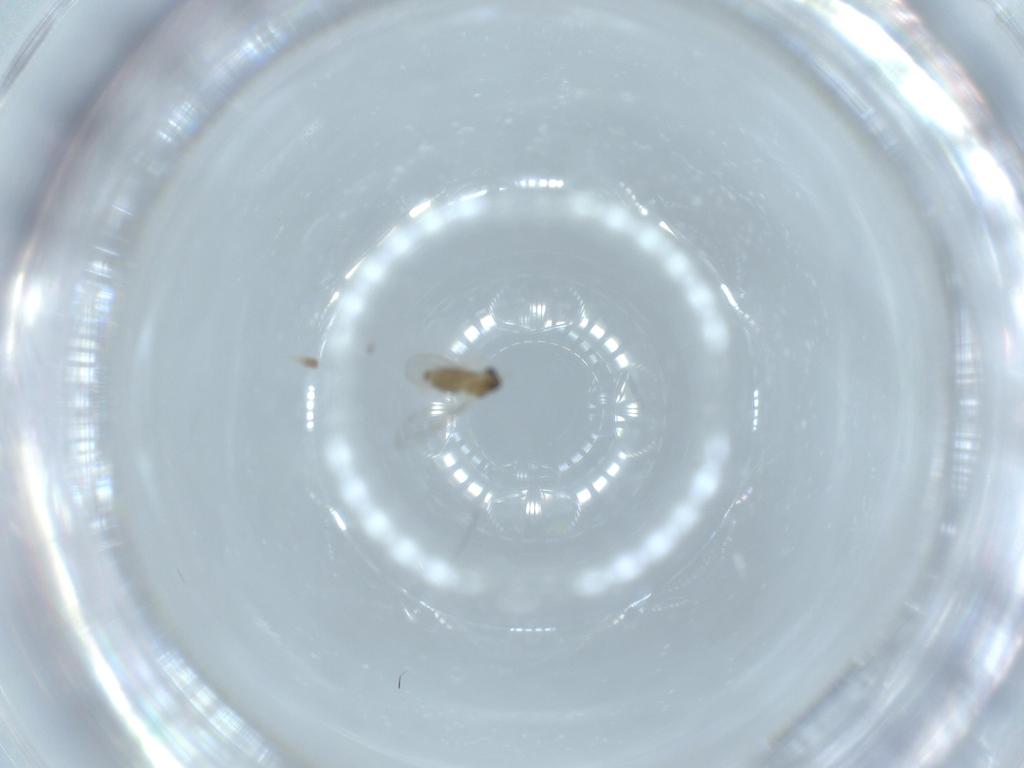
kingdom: Animalia
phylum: Arthropoda
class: Insecta
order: Diptera
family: Cecidomyiidae
